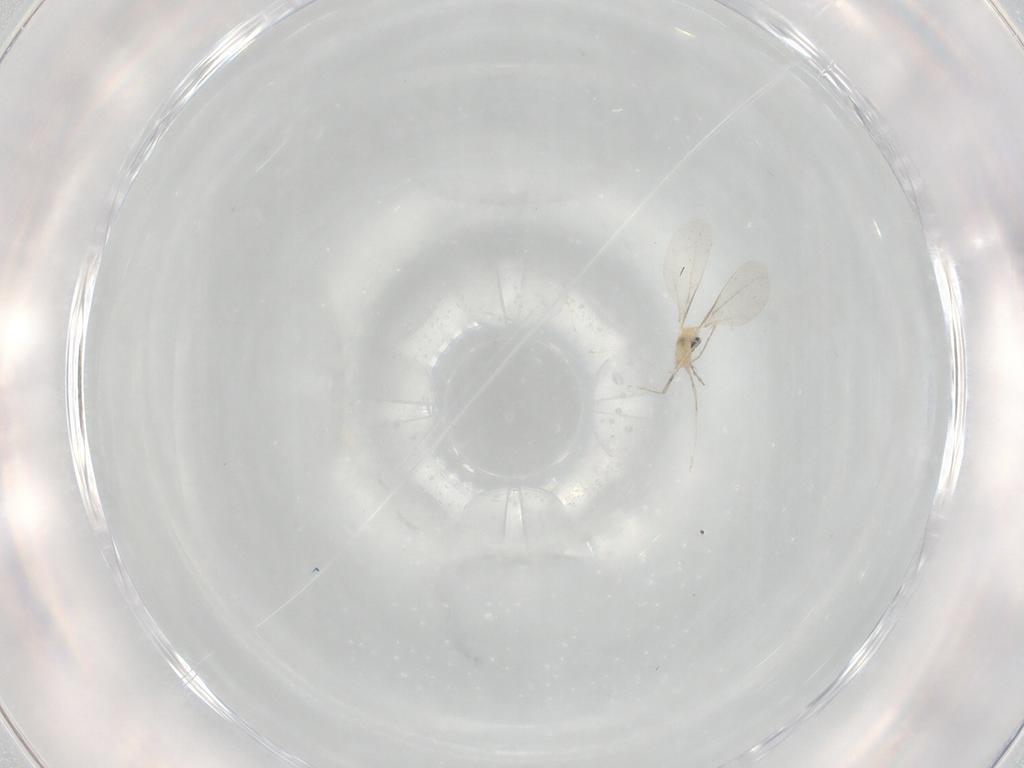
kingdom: Animalia
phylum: Arthropoda
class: Insecta
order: Diptera
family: Cecidomyiidae
